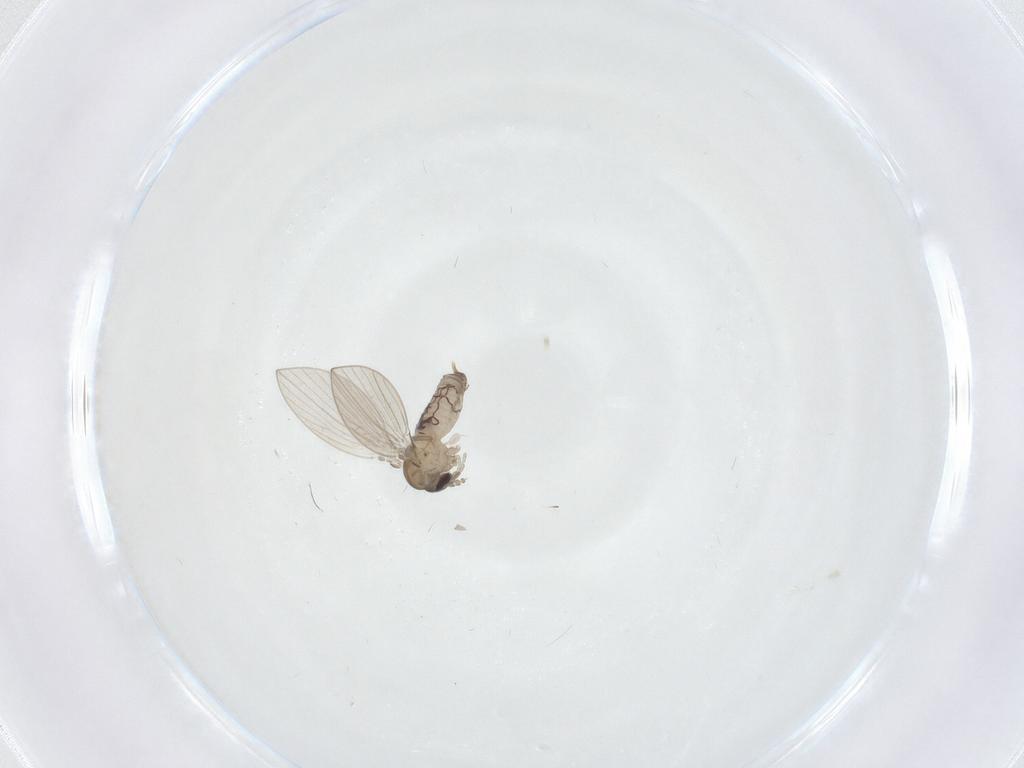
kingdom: Animalia
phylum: Arthropoda
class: Insecta
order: Diptera
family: Psychodidae
